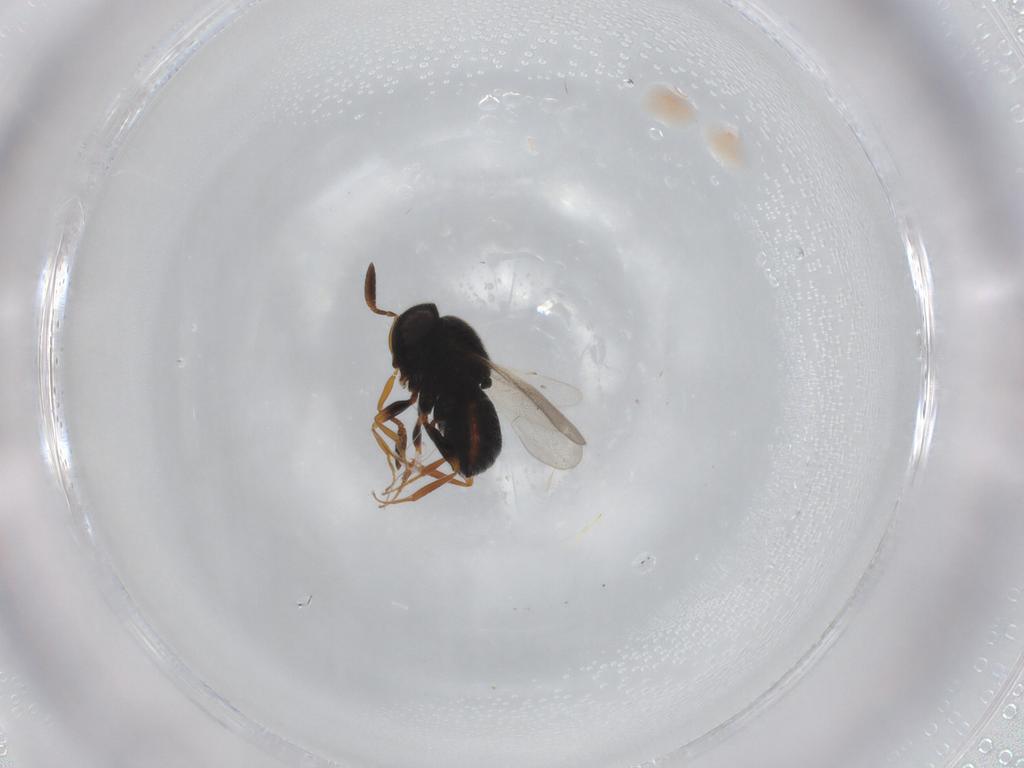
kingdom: Animalia
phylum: Arthropoda
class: Insecta
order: Hymenoptera
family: Scelionidae
